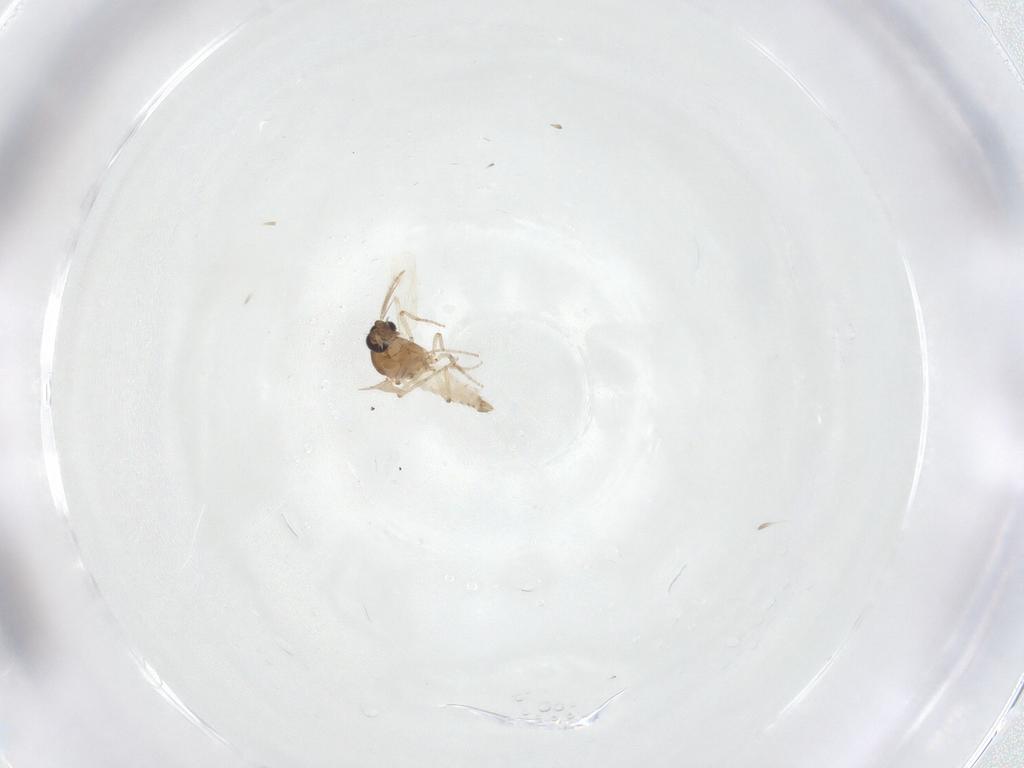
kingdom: Animalia
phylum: Arthropoda
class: Insecta
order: Diptera
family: Ceratopogonidae
